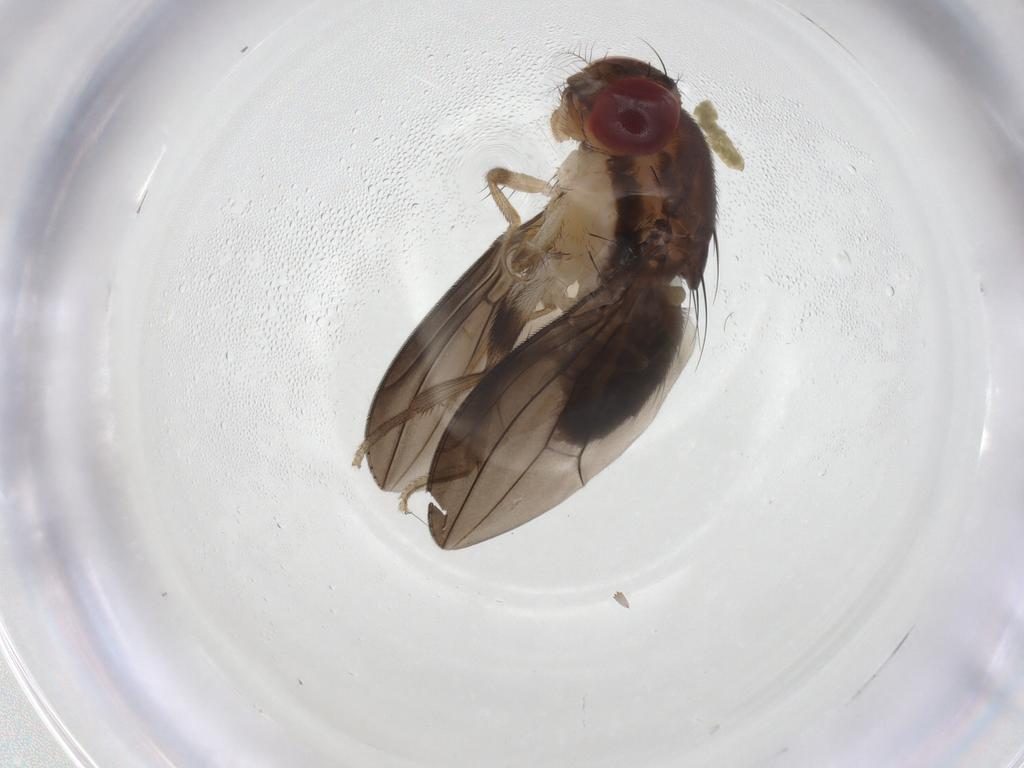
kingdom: Animalia
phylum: Arthropoda
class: Insecta
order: Diptera
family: Drosophilidae
